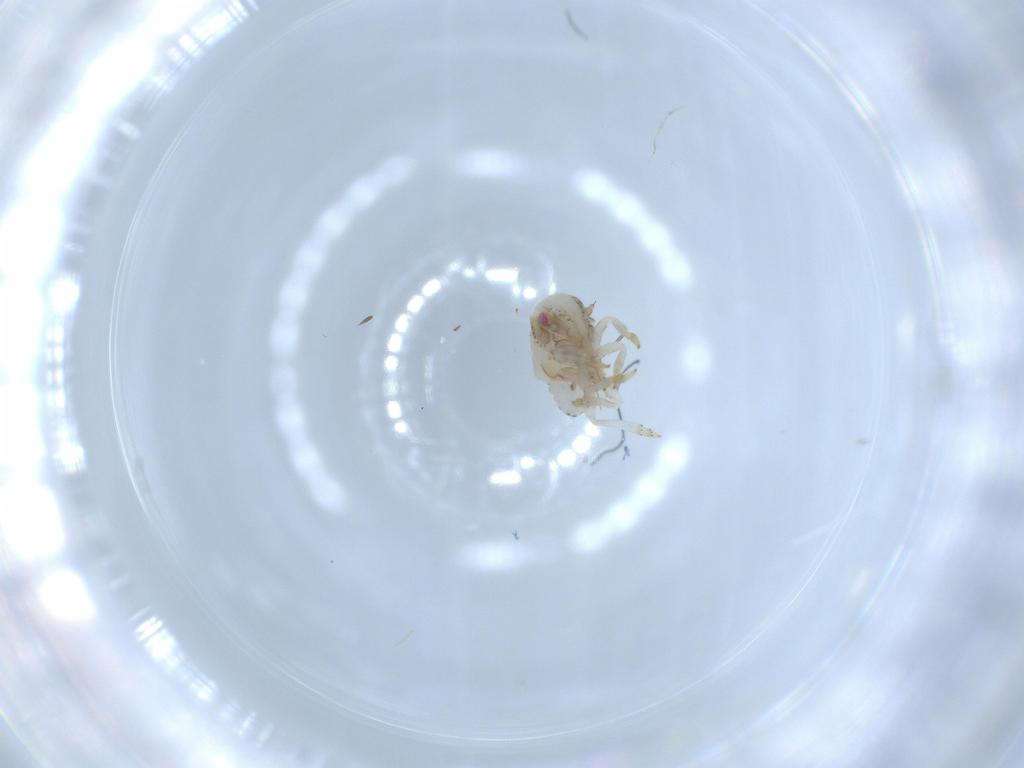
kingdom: Animalia
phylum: Arthropoda
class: Insecta
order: Hemiptera
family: Acanaloniidae
